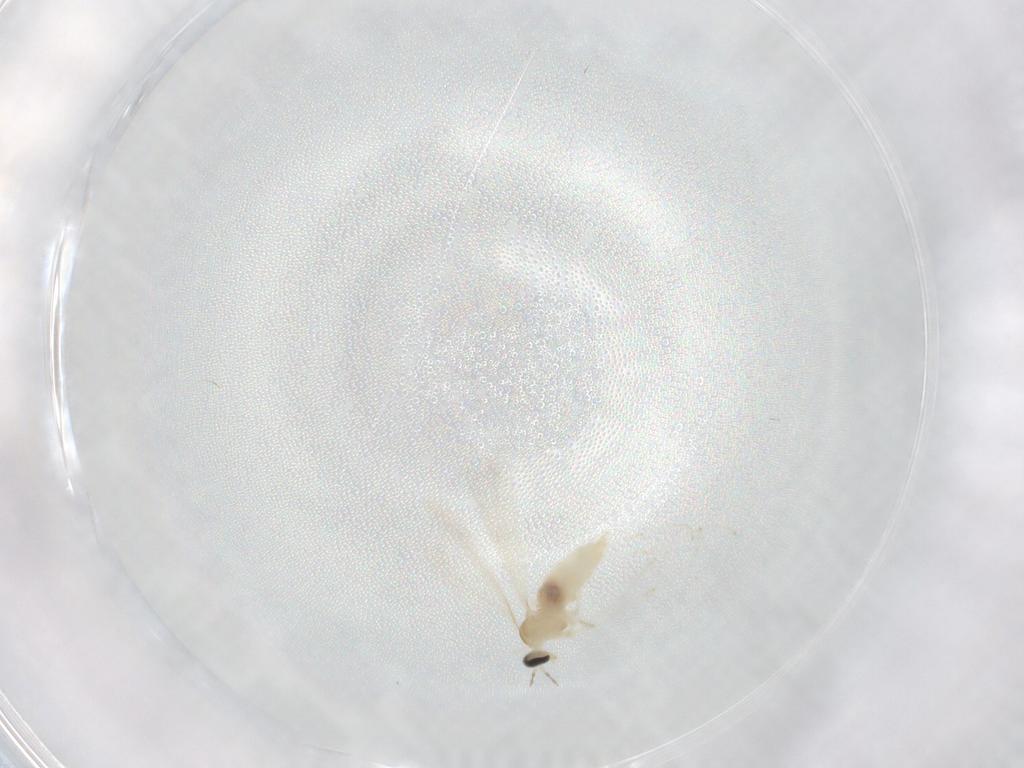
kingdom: Animalia
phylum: Arthropoda
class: Insecta
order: Diptera
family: Cecidomyiidae
